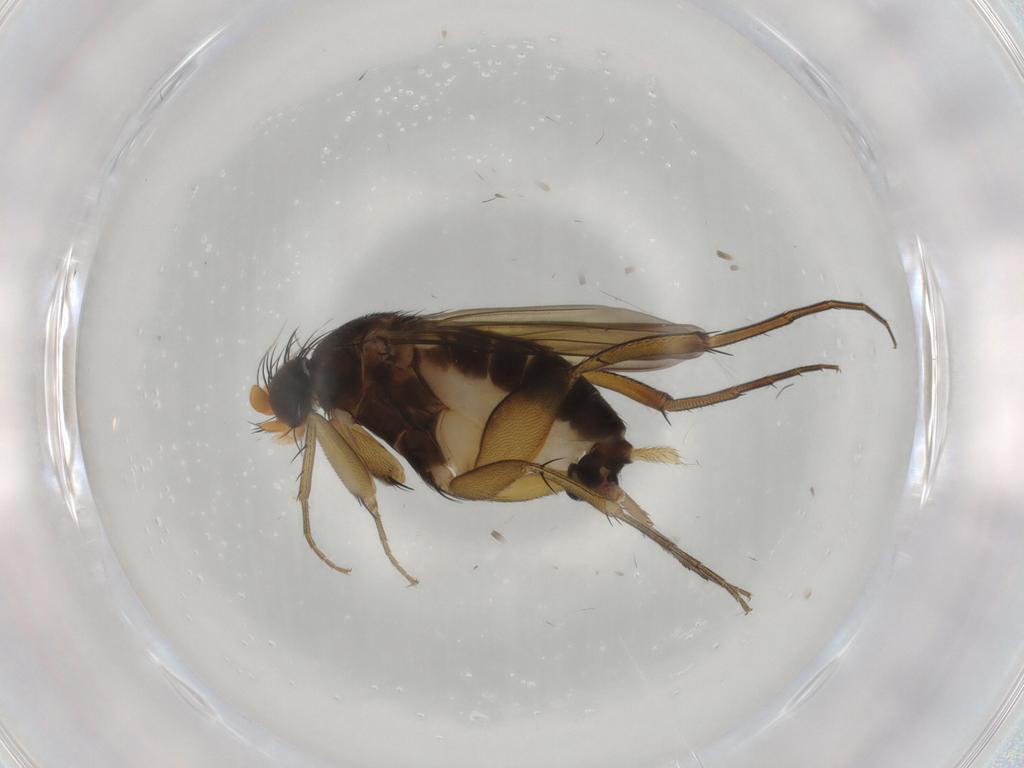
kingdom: Animalia
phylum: Arthropoda
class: Insecta
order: Diptera
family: Phoridae
